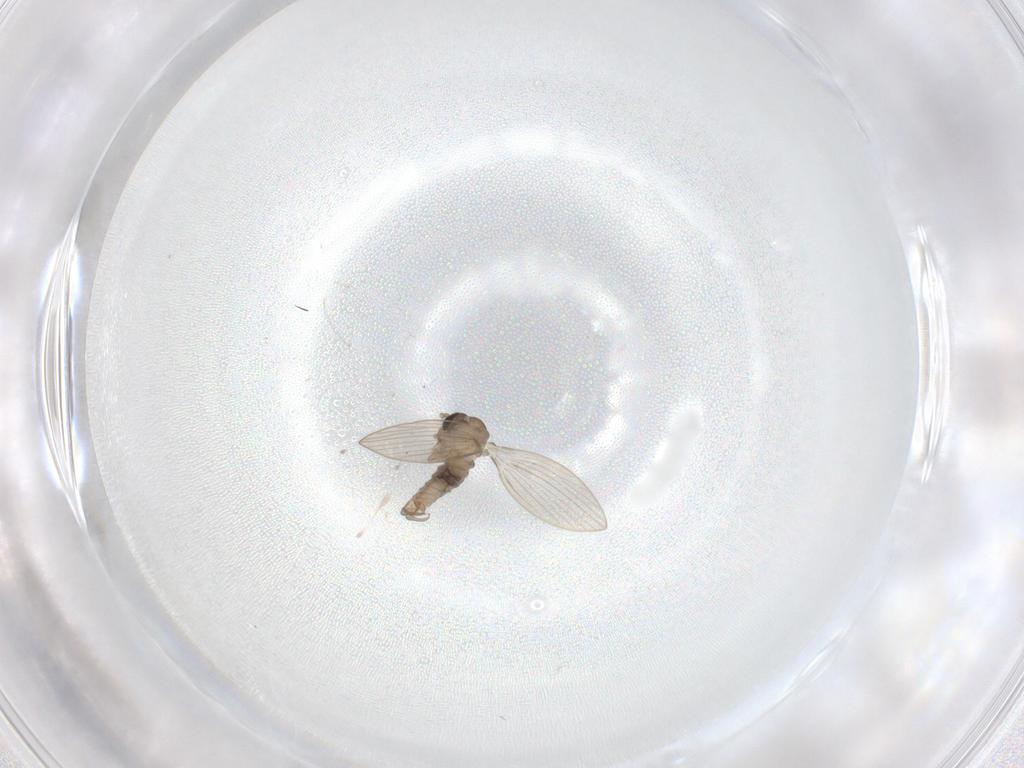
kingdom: Animalia
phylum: Arthropoda
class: Insecta
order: Diptera
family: Psychodidae
